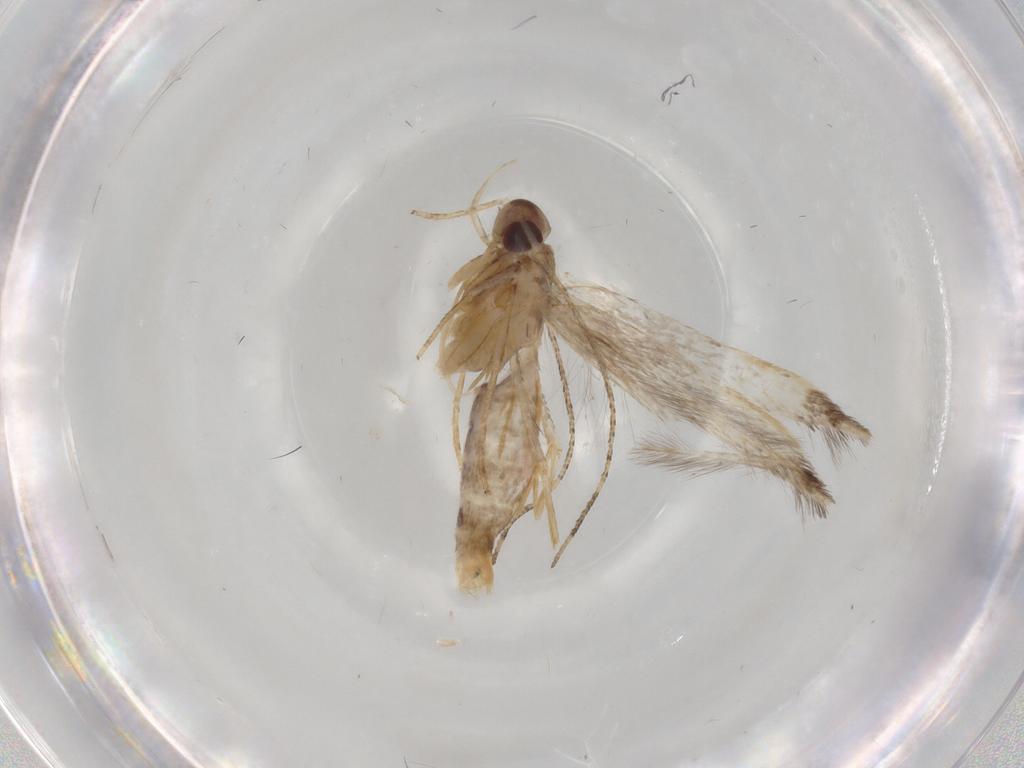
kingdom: Animalia
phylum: Arthropoda
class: Insecta
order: Lepidoptera
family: Cosmopterigidae
